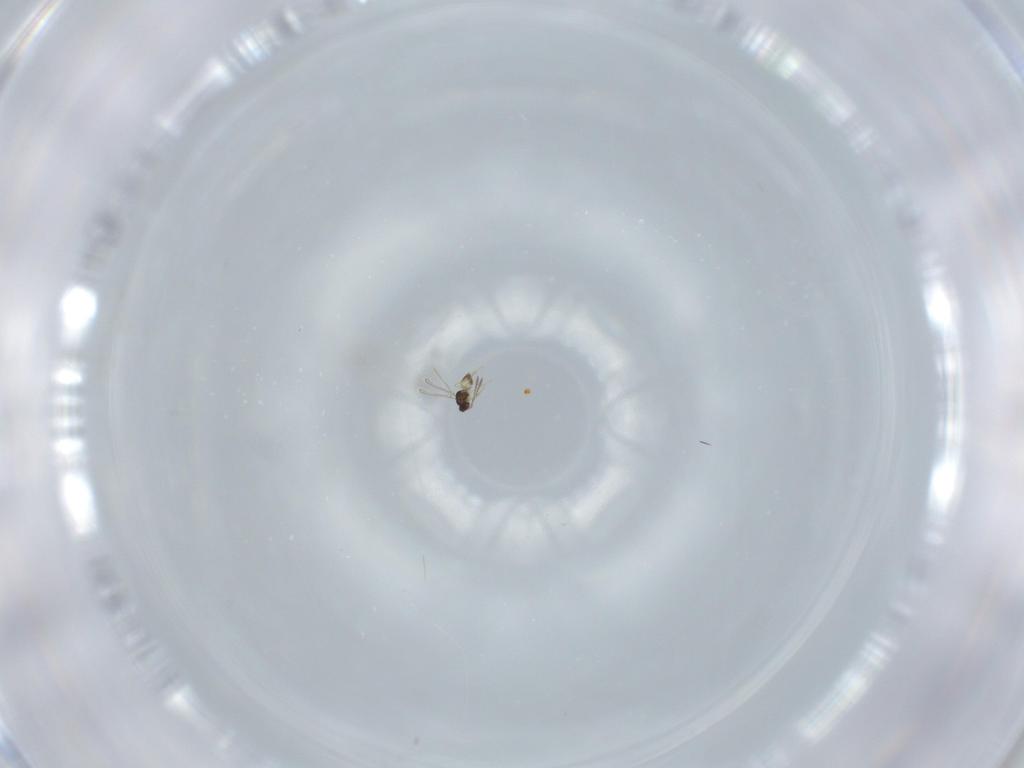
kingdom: Animalia
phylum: Arthropoda
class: Insecta
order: Hymenoptera
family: Mymaridae
